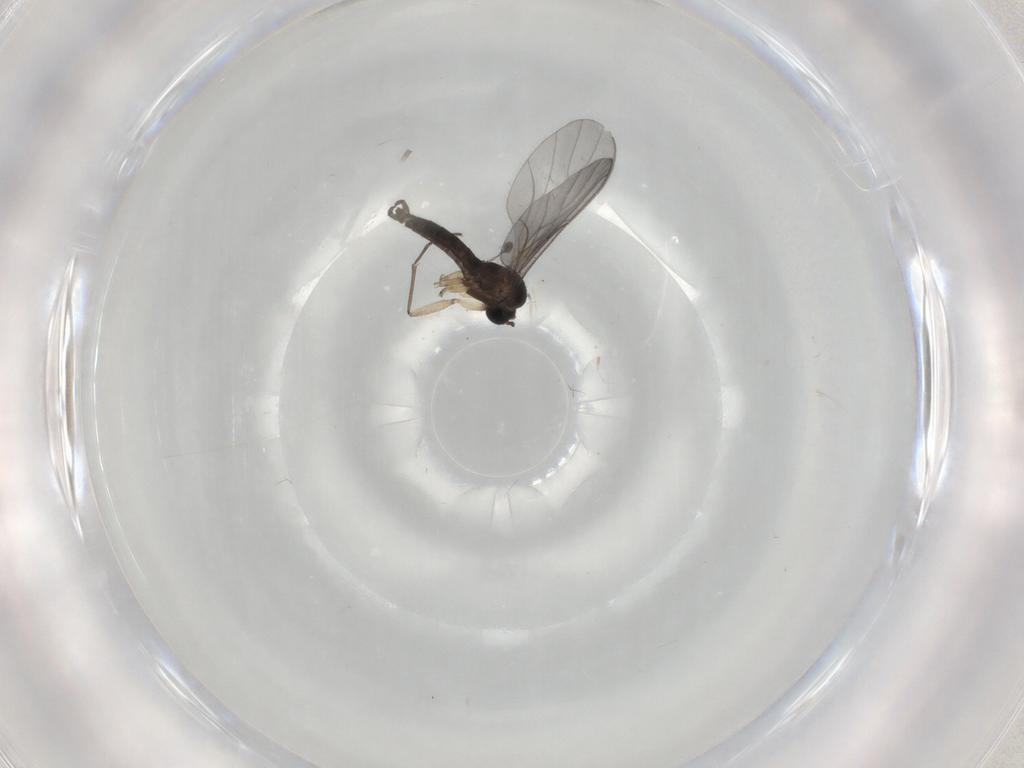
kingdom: Animalia
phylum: Arthropoda
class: Insecta
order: Diptera
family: Sciaridae
